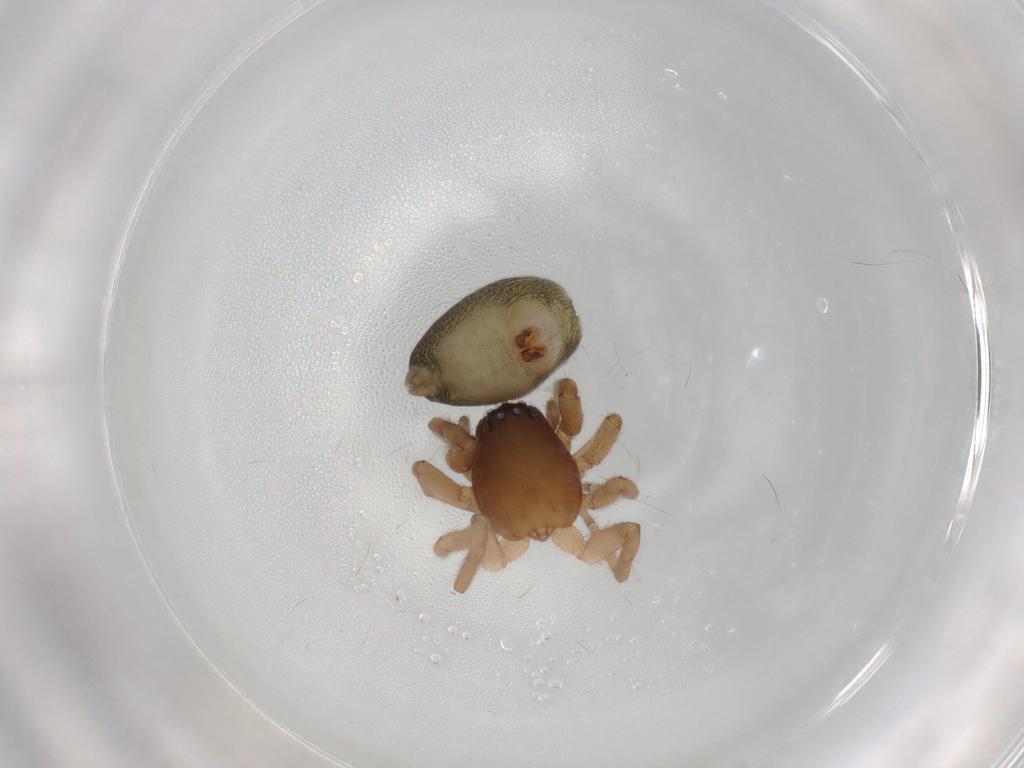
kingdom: Animalia
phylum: Arthropoda
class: Arachnida
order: Araneae
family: Trachelidae
